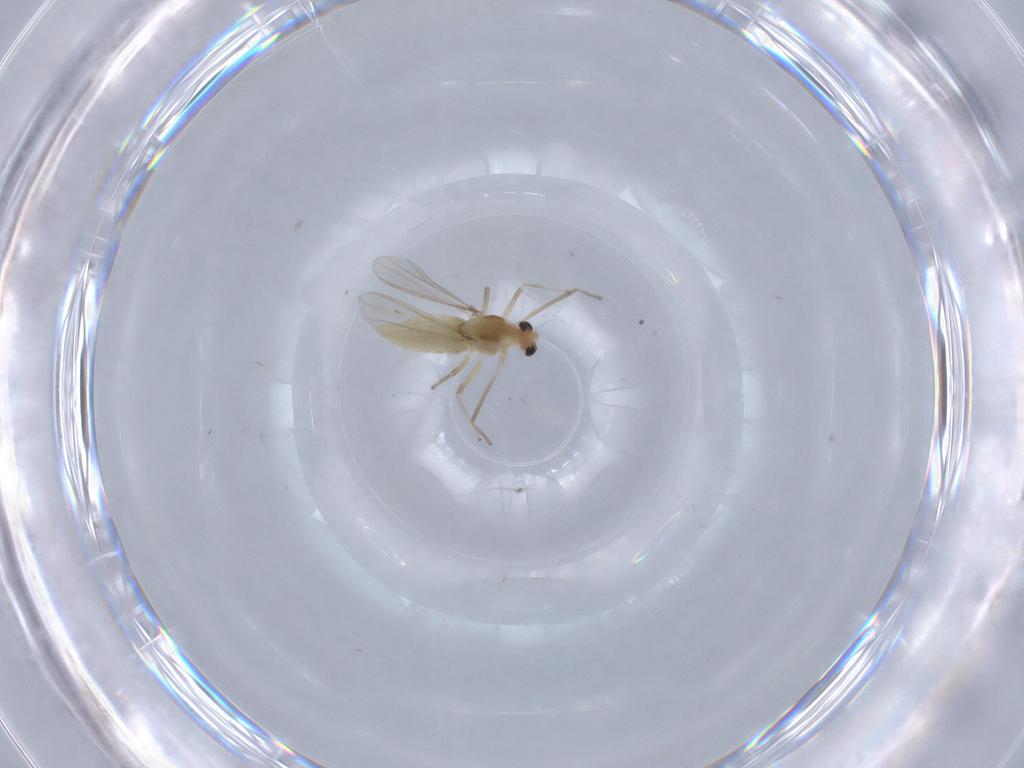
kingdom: Animalia
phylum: Arthropoda
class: Insecta
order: Diptera
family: Chironomidae
